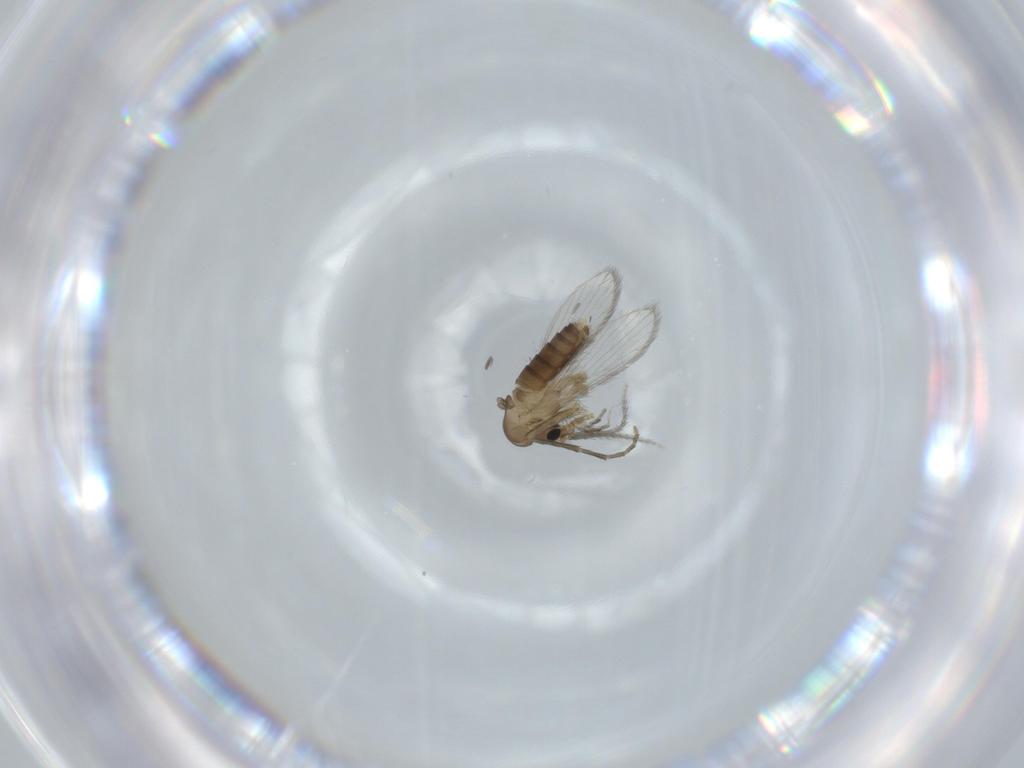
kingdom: Animalia
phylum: Arthropoda
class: Insecta
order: Diptera
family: Psychodidae
